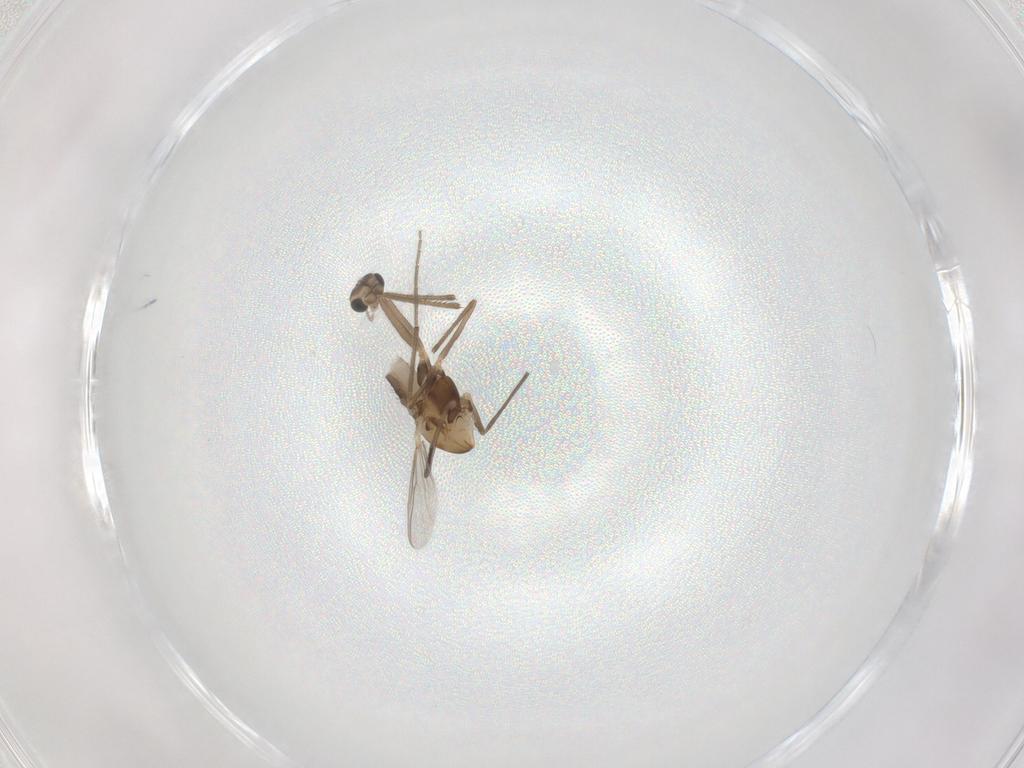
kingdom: Animalia
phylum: Arthropoda
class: Insecta
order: Diptera
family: Chironomidae
